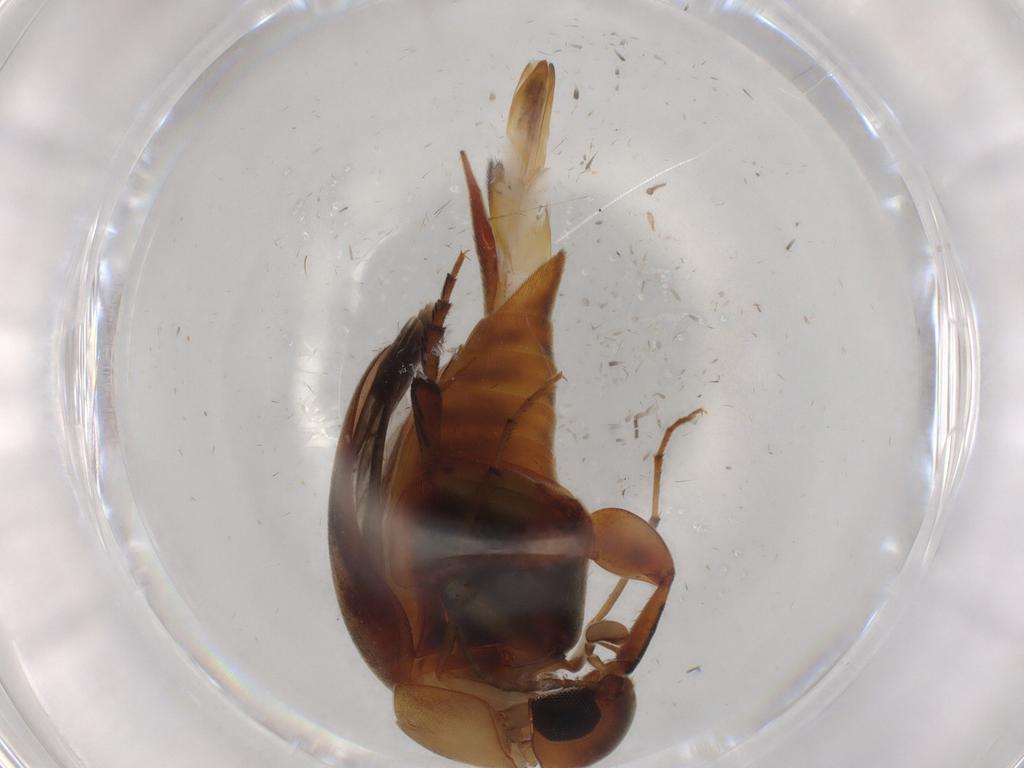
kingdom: Animalia
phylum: Arthropoda
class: Insecta
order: Coleoptera
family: Mordellidae
